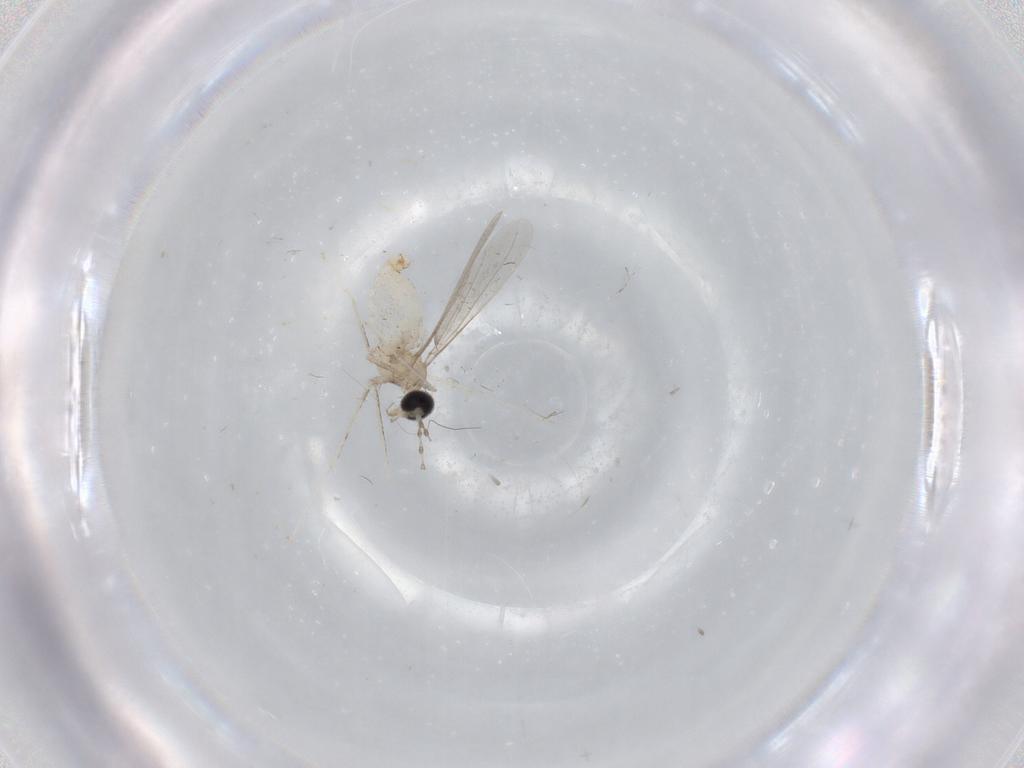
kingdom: Animalia
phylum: Arthropoda
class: Insecta
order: Diptera
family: Cecidomyiidae
